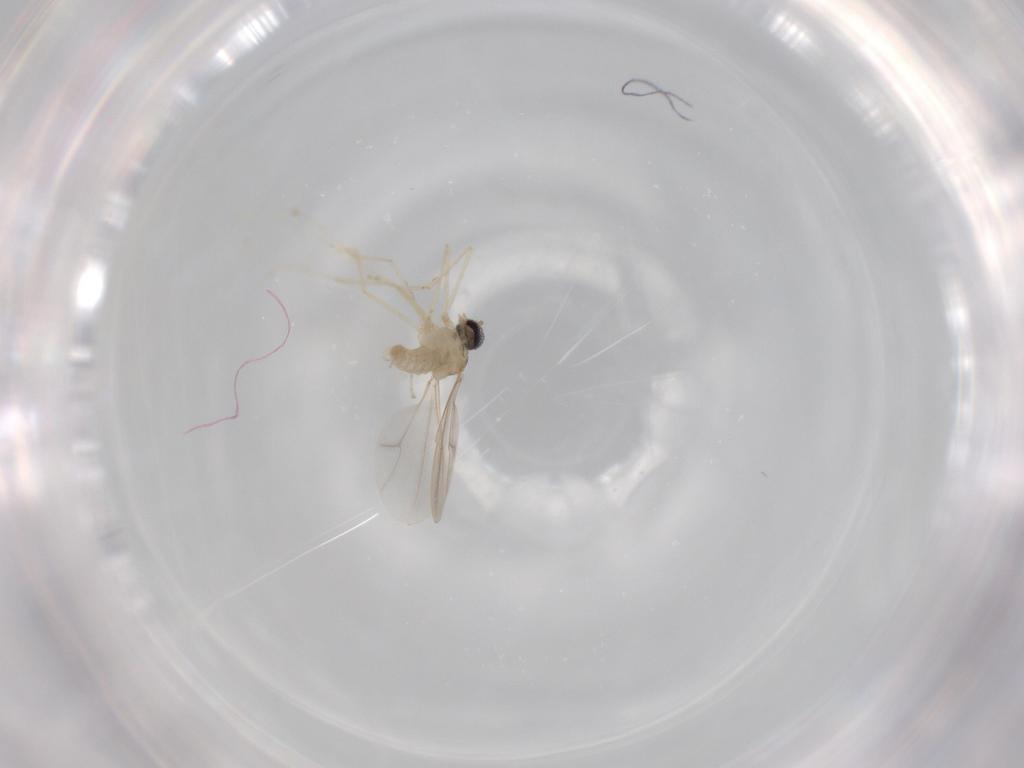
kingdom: Animalia
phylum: Arthropoda
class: Insecta
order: Diptera
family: Cecidomyiidae
